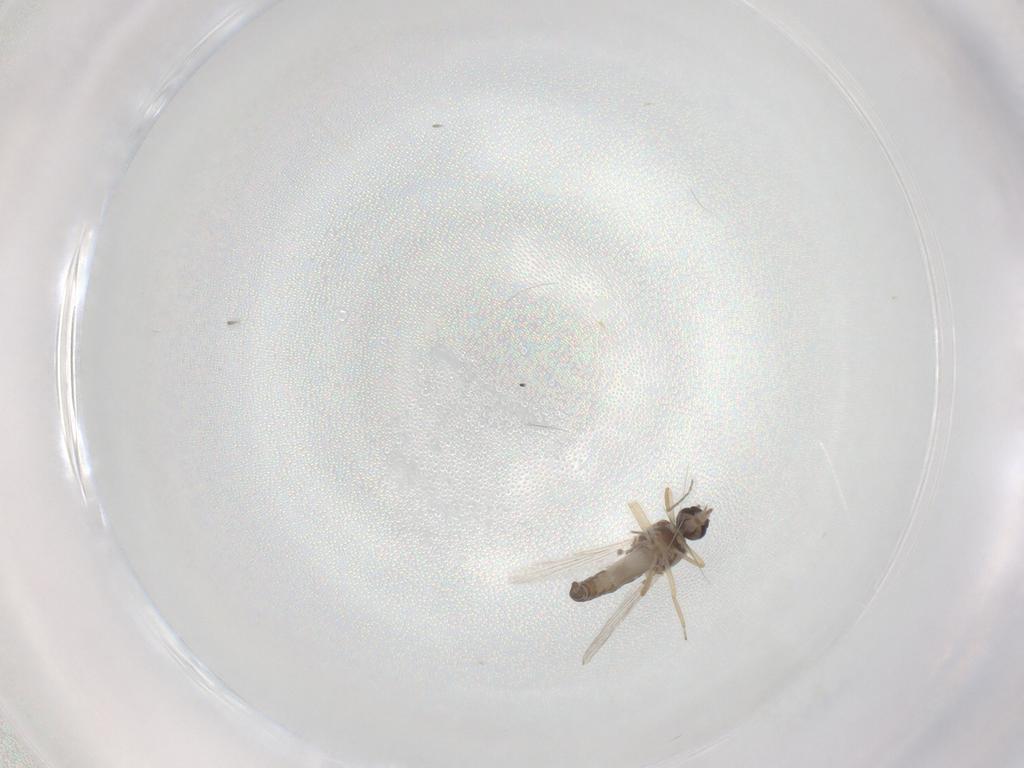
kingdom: Animalia
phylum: Arthropoda
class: Insecta
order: Diptera
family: Ceratopogonidae
